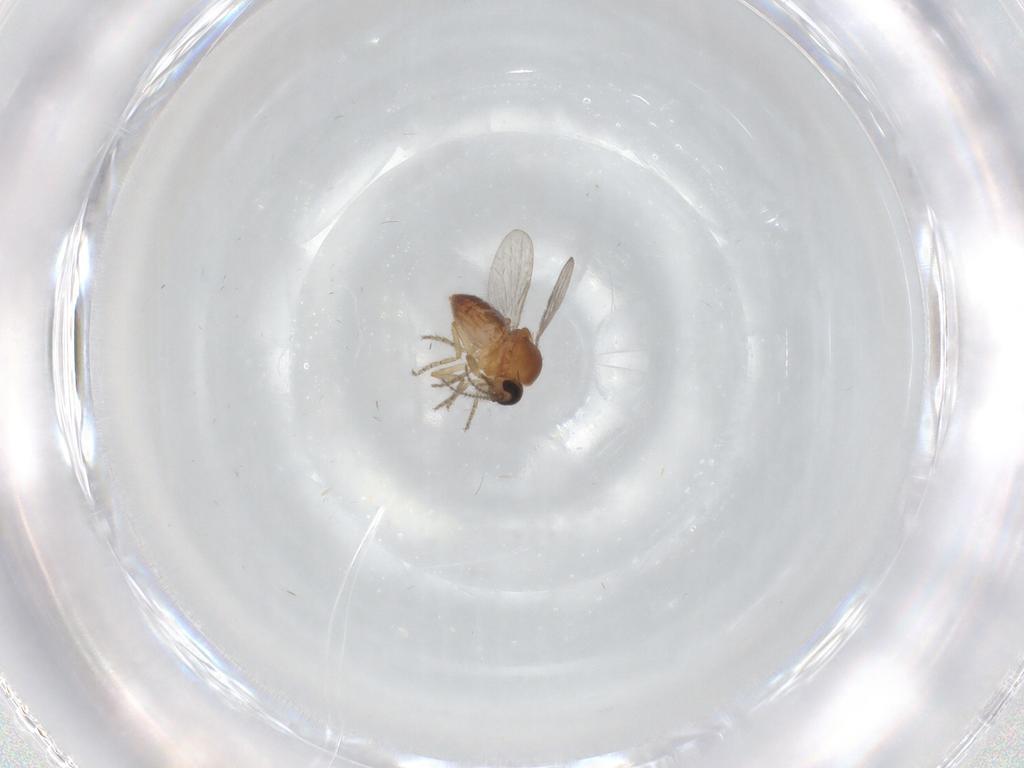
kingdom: Animalia
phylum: Arthropoda
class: Insecta
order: Diptera
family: Ceratopogonidae
